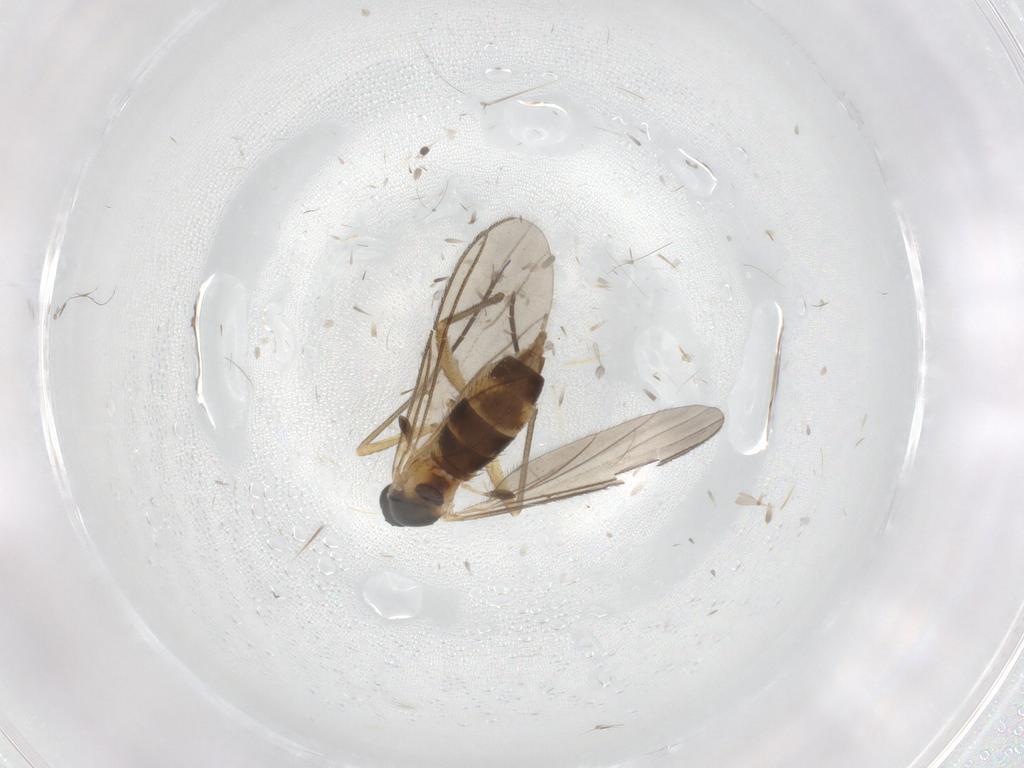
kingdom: Animalia
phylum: Arthropoda
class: Insecta
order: Diptera
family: Sciaridae
